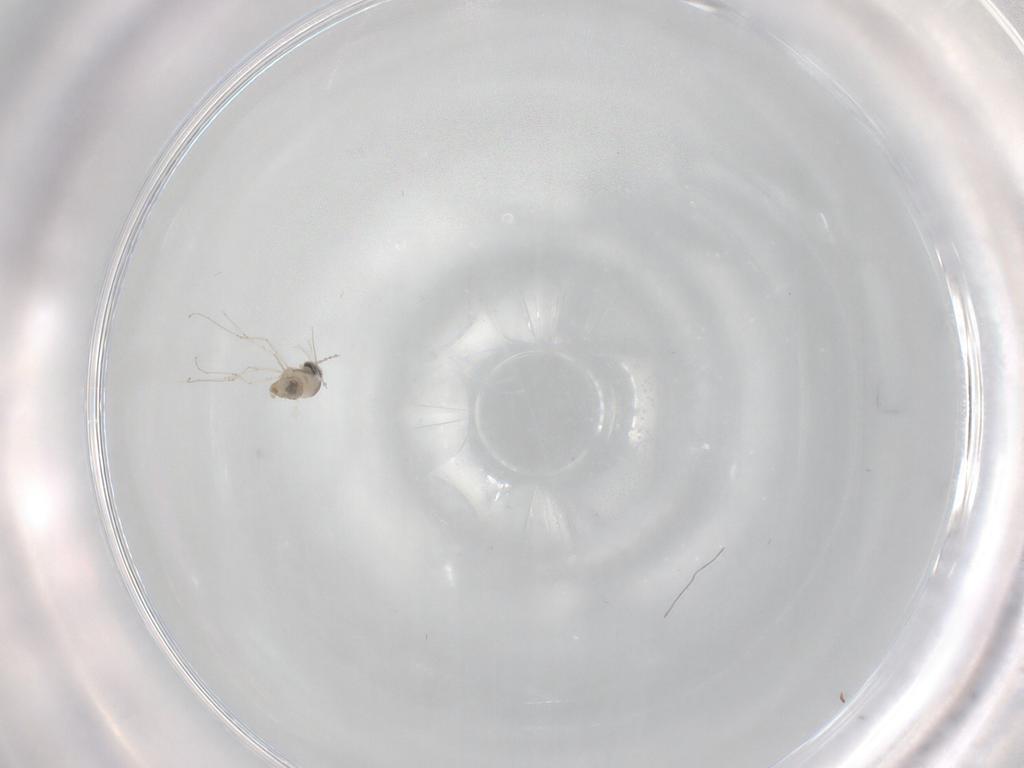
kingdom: Animalia
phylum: Arthropoda
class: Insecta
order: Diptera
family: Cecidomyiidae
